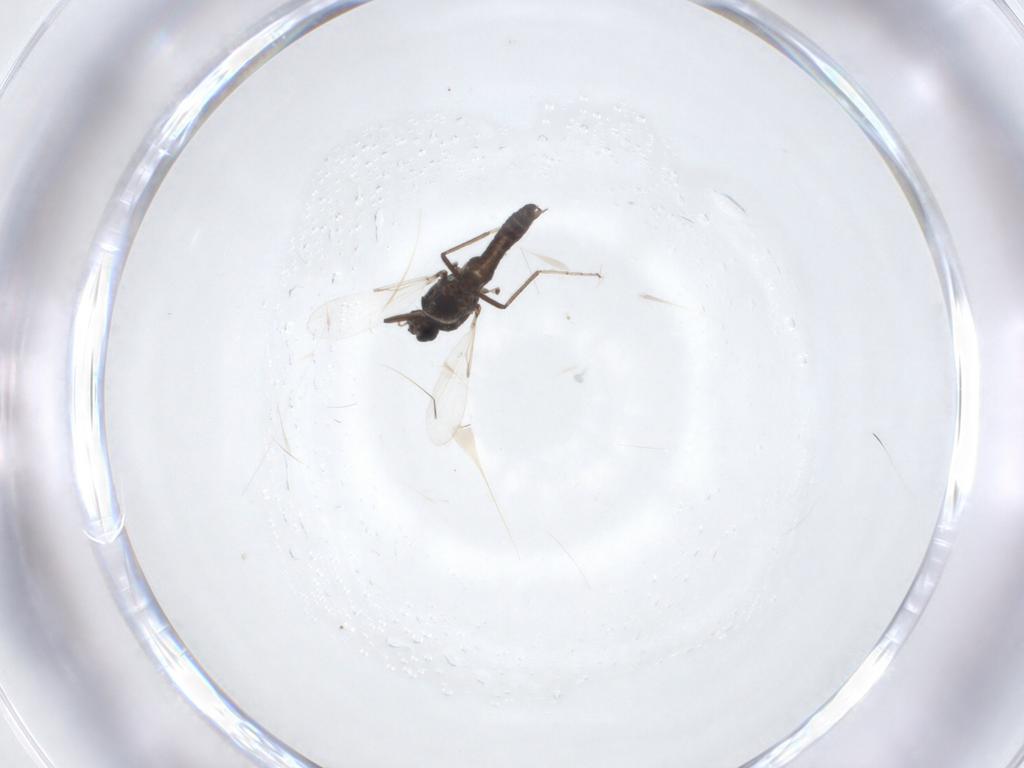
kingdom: Animalia
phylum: Arthropoda
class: Insecta
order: Diptera
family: Ceratopogonidae
